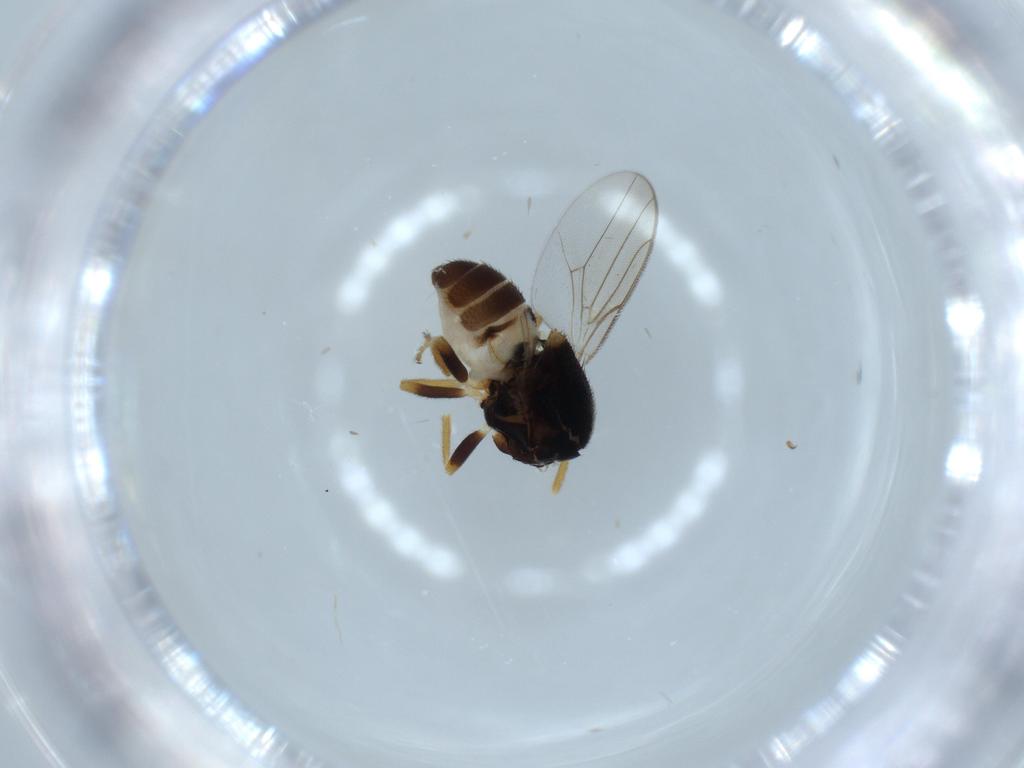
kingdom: Animalia
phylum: Arthropoda
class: Insecta
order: Diptera
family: Chloropidae
